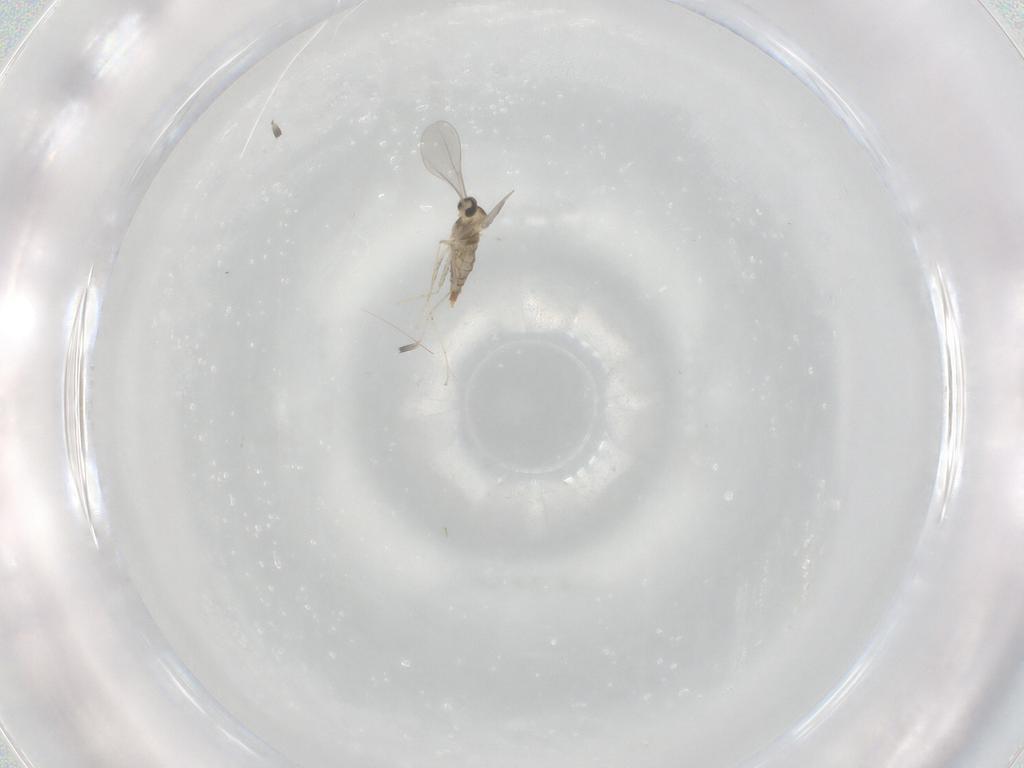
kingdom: Animalia
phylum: Arthropoda
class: Insecta
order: Diptera
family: Cecidomyiidae
